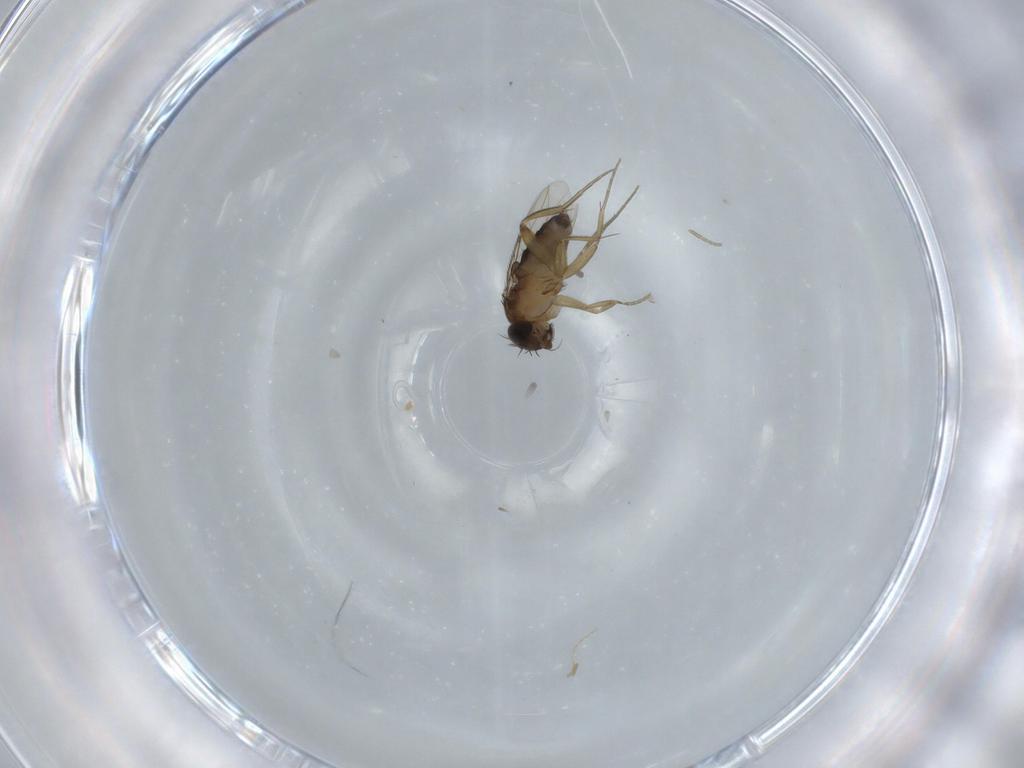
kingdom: Animalia
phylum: Arthropoda
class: Insecta
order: Diptera
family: Phoridae
